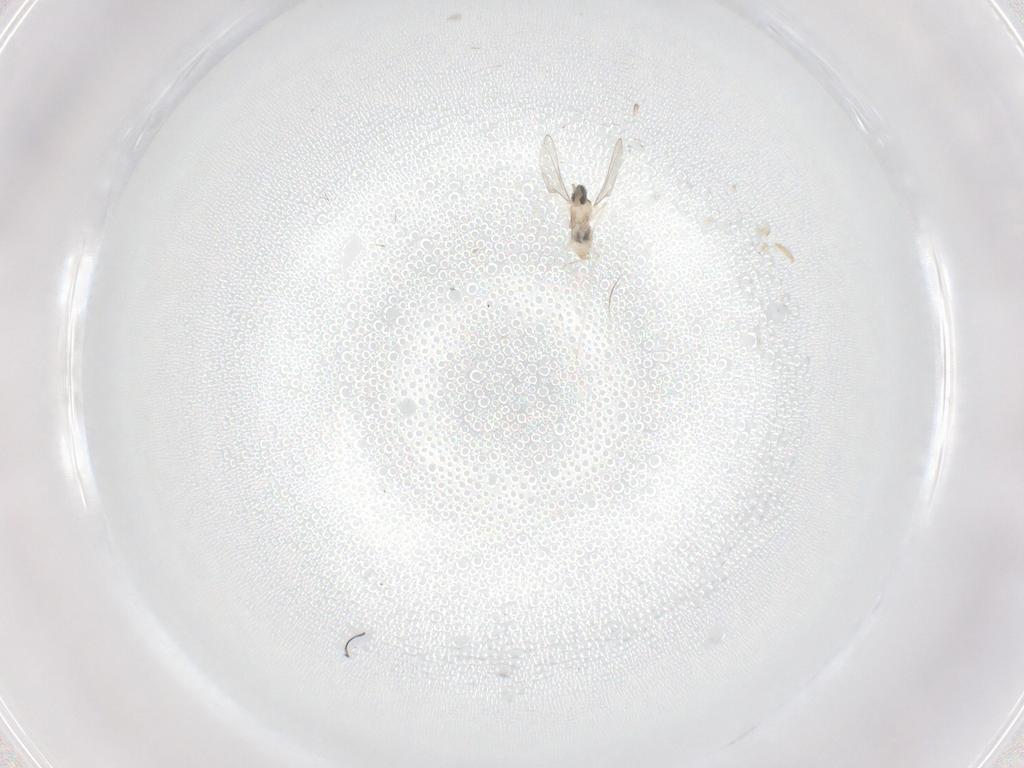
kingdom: Animalia
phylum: Arthropoda
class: Insecta
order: Diptera
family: Cecidomyiidae
